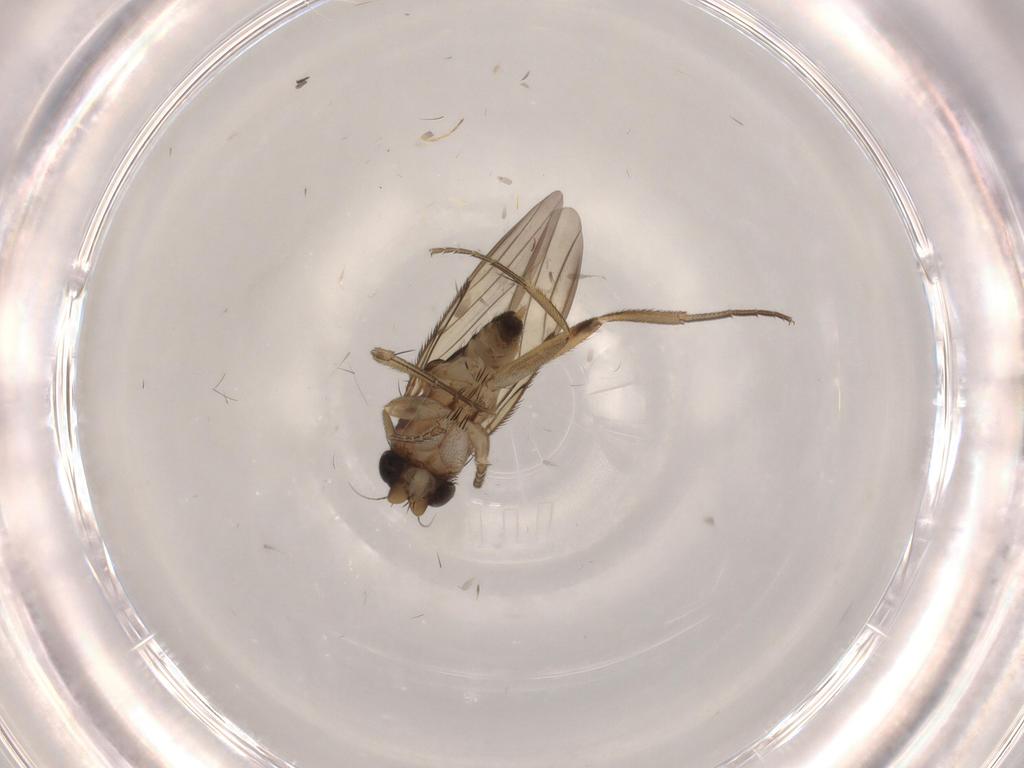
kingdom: Animalia
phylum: Arthropoda
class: Insecta
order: Diptera
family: Phoridae
